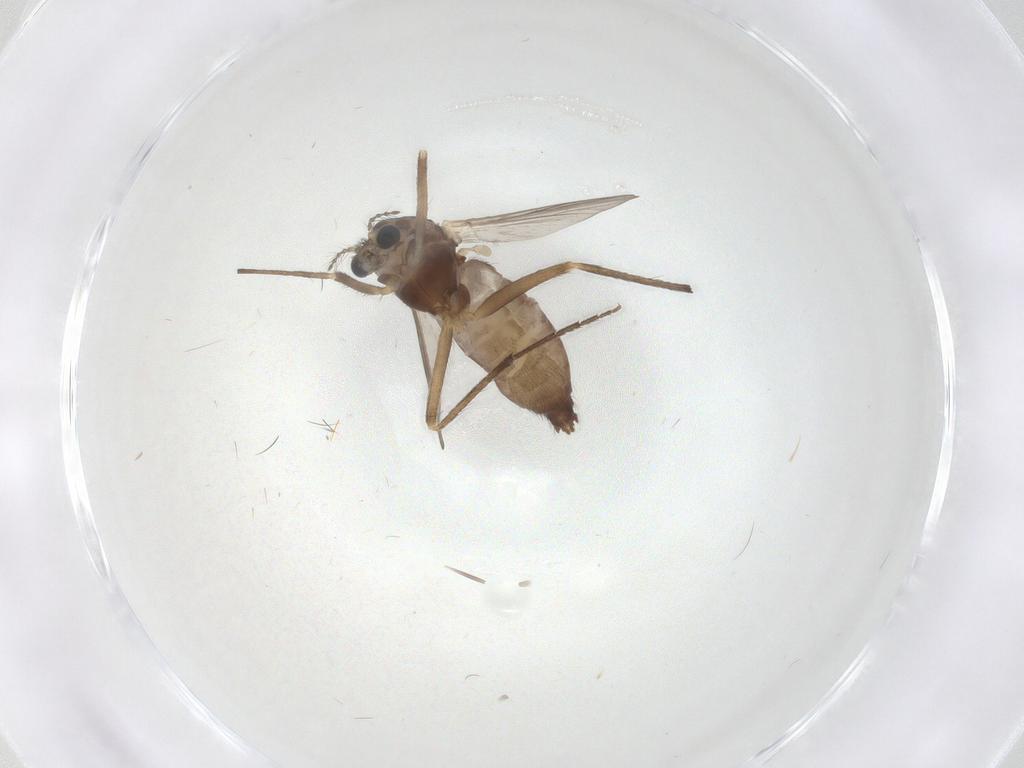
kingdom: Animalia
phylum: Arthropoda
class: Insecta
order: Diptera
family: Chironomidae
